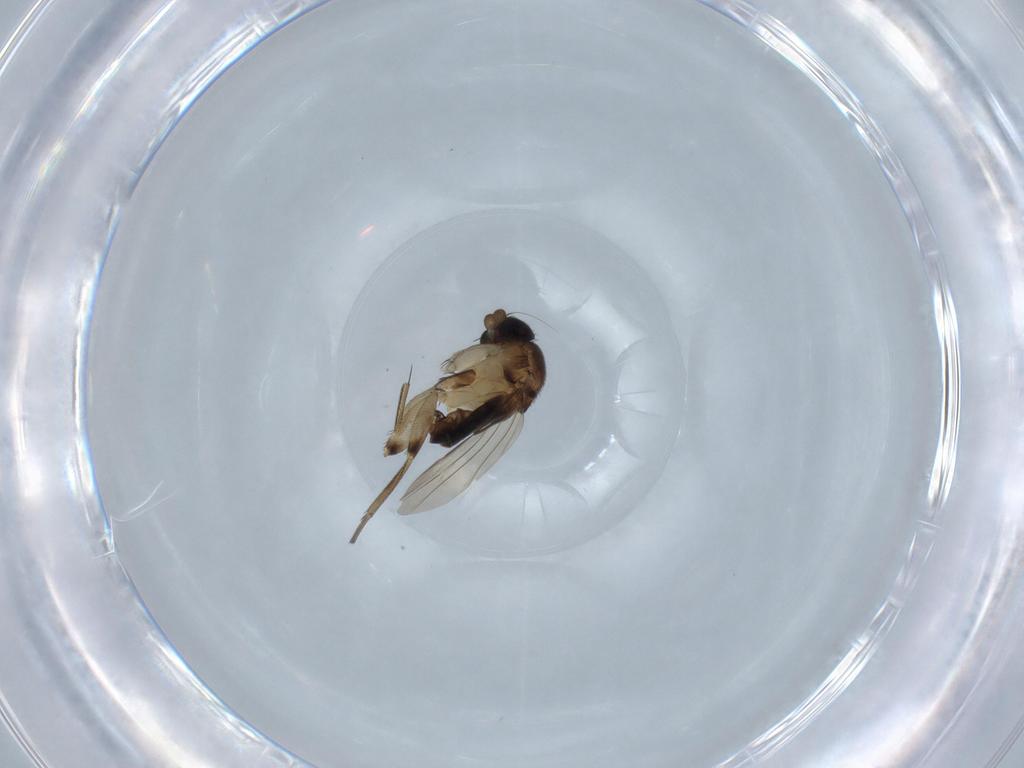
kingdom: Animalia
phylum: Arthropoda
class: Insecta
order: Diptera
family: Phoridae
